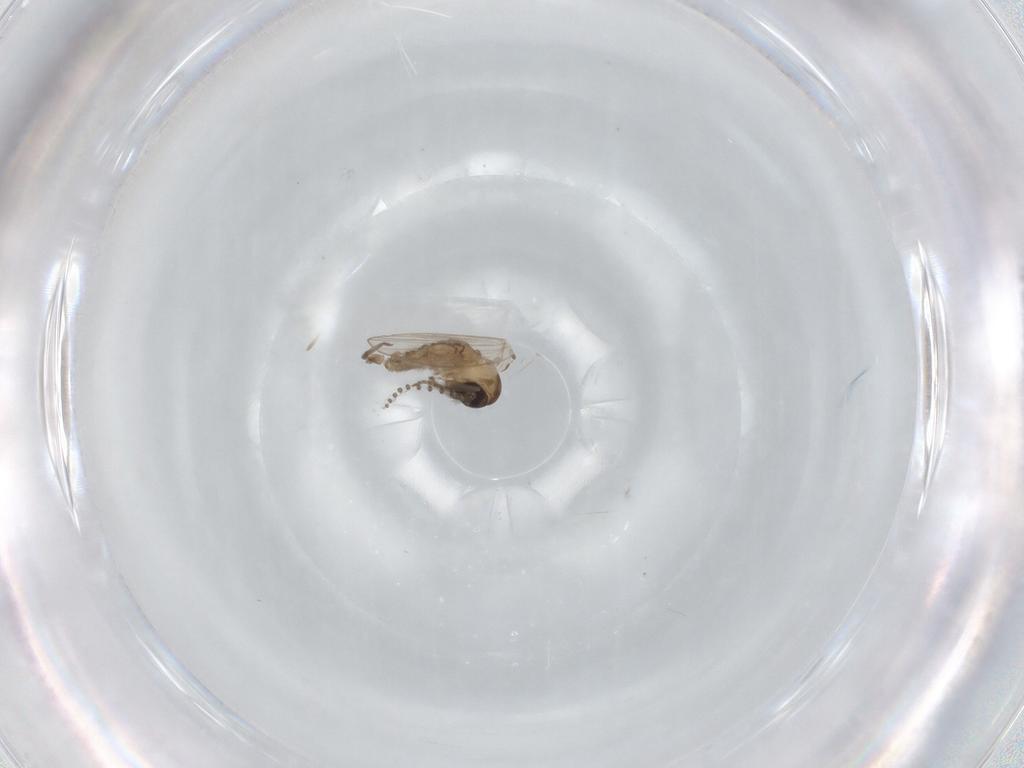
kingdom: Animalia
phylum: Arthropoda
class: Insecta
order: Diptera
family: Psychodidae
